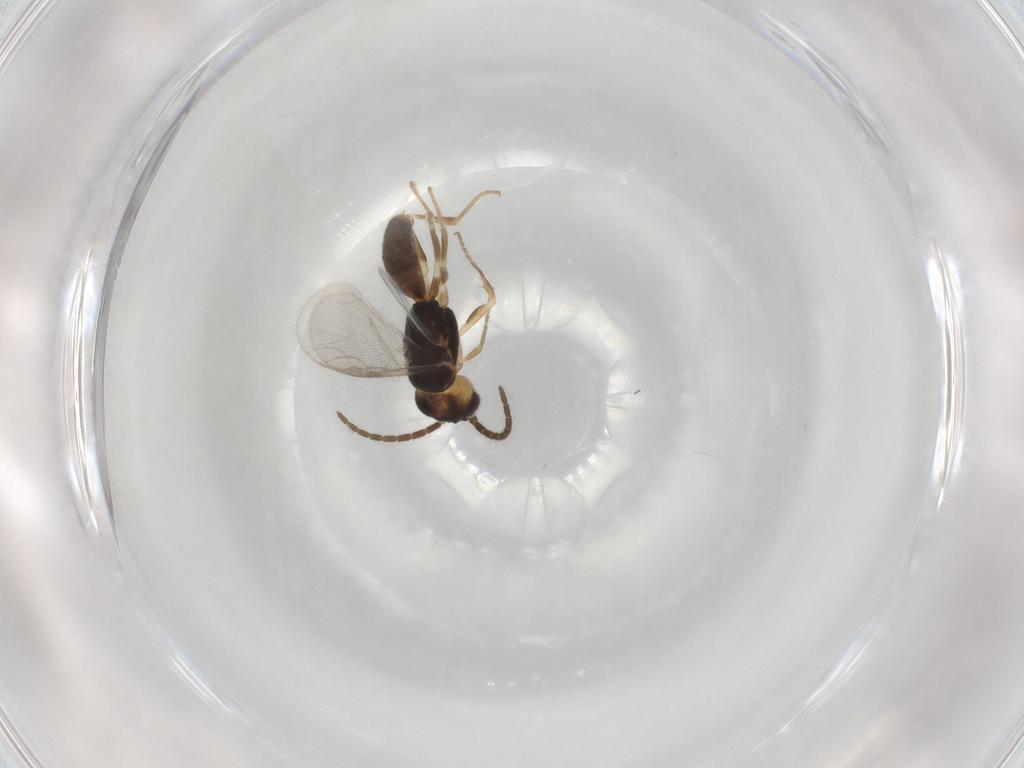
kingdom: Animalia
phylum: Arthropoda
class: Insecta
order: Hymenoptera
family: Dryinidae
